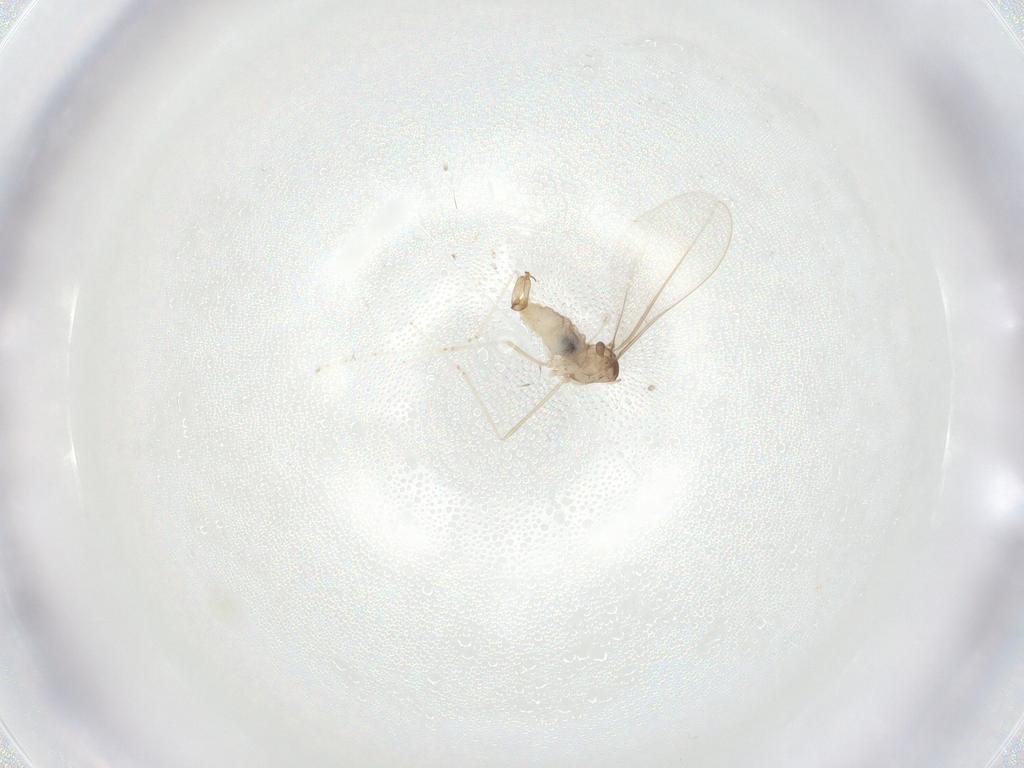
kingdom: Animalia
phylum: Arthropoda
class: Insecta
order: Diptera
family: Cecidomyiidae
